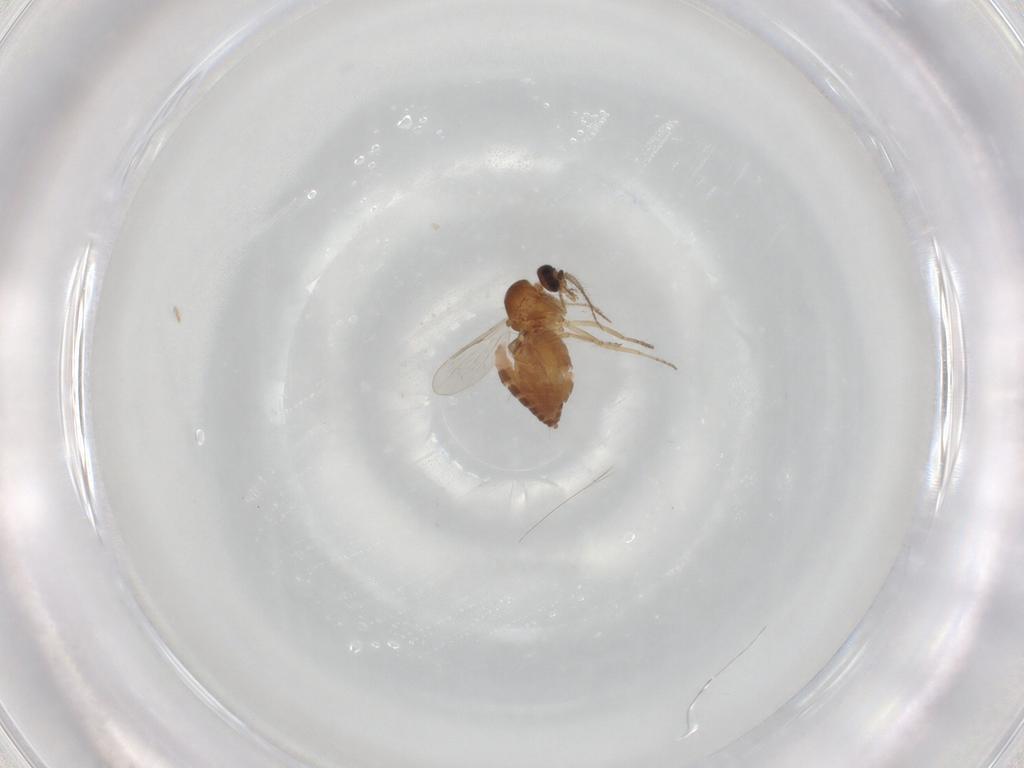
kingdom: Animalia
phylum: Arthropoda
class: Insecta
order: Diptera
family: Ceratopogonidae
